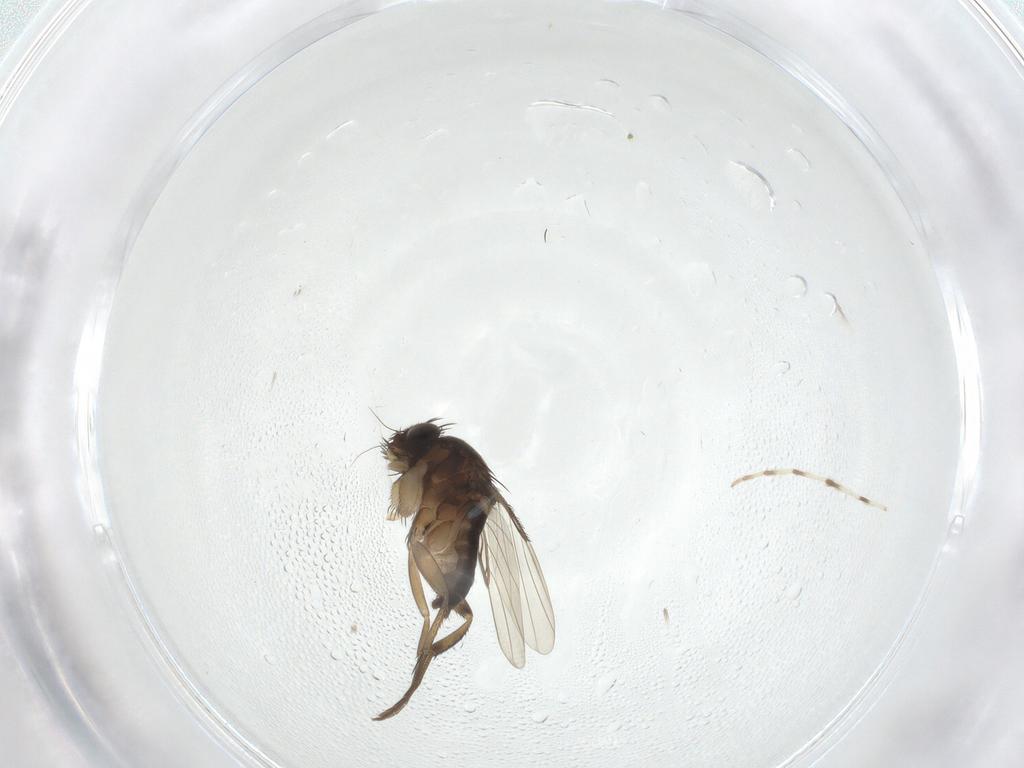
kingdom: Animalia
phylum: Arthropoda
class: Insecta
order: Diptera
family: Phoridae
